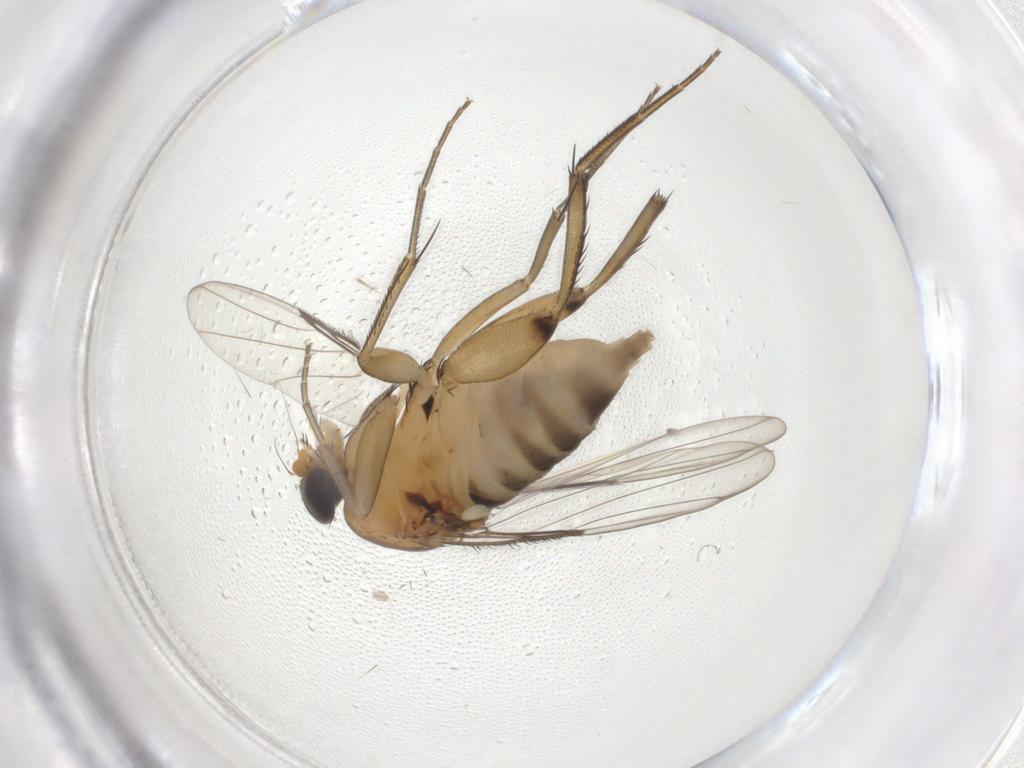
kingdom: Animalia
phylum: Arthropoda
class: Insecta
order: Diptera
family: Phoridae
